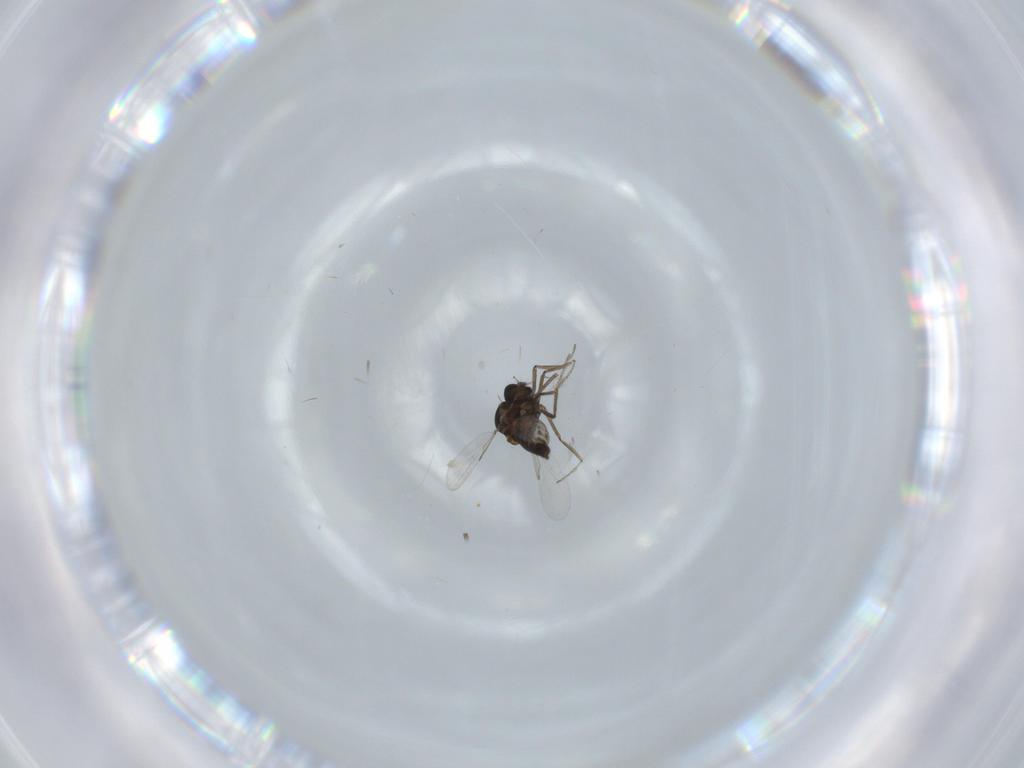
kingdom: Animalia
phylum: Arthropoda
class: Insecta
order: Diptera
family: Ceratopogonidae
